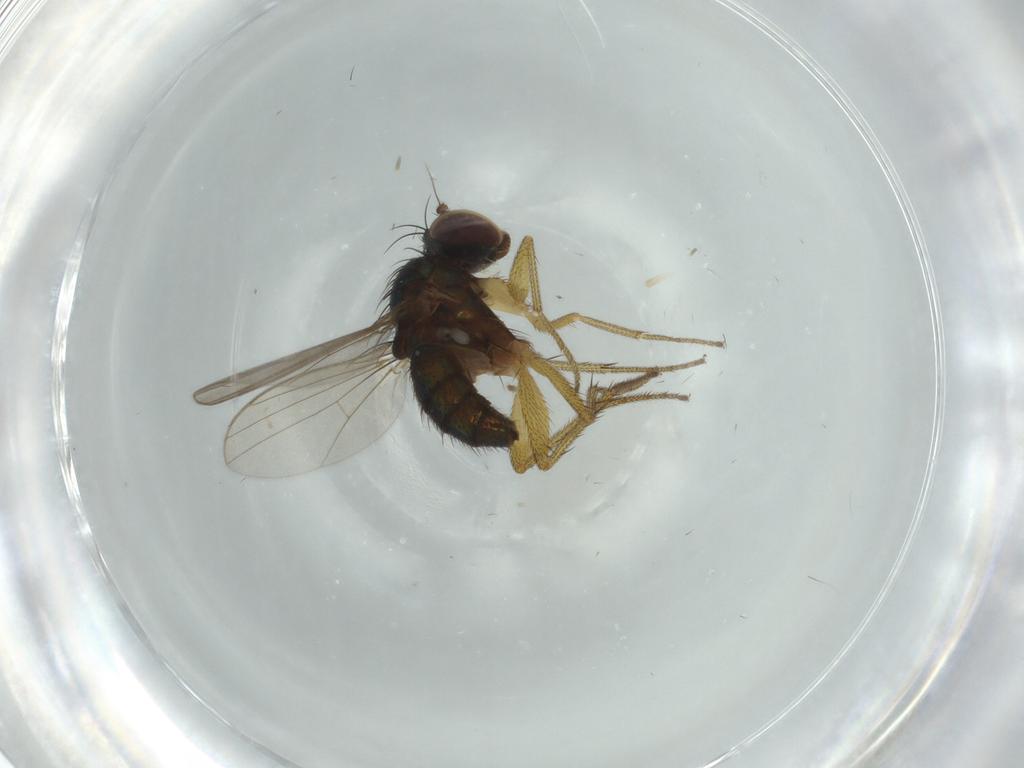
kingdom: Animalia
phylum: Arthropoda
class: Insecta
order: Diptera
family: Dolichopodidae
